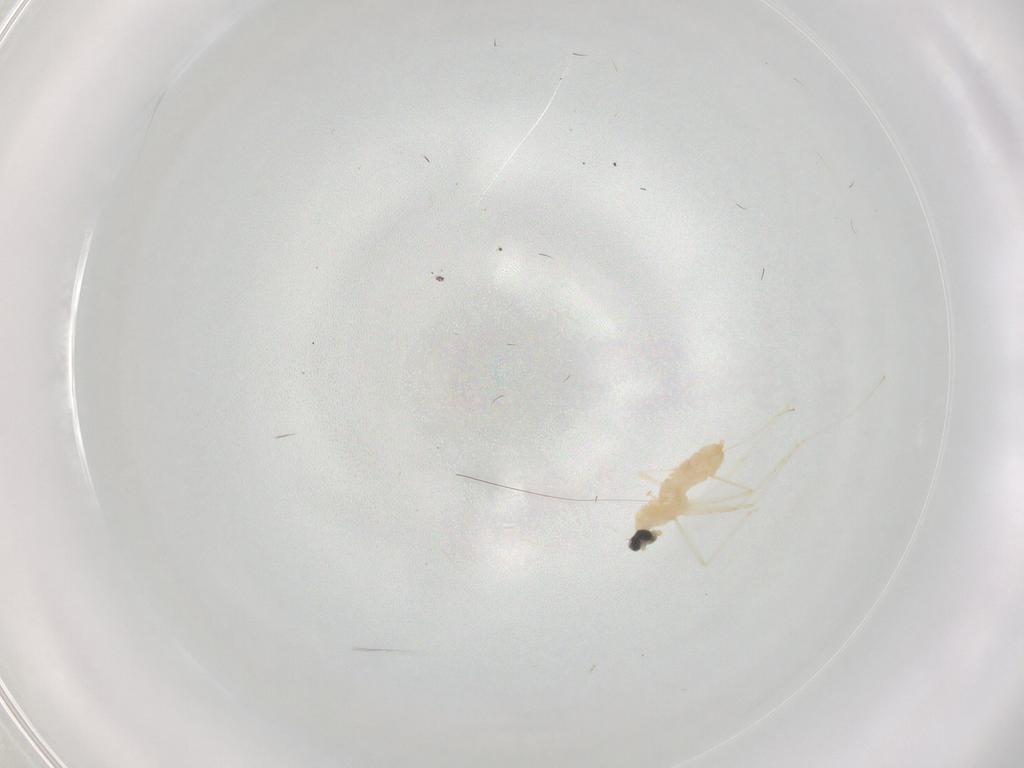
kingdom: Animalia
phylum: Arthropoda
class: Insecta
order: Diptera
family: Cecidomyiidae
